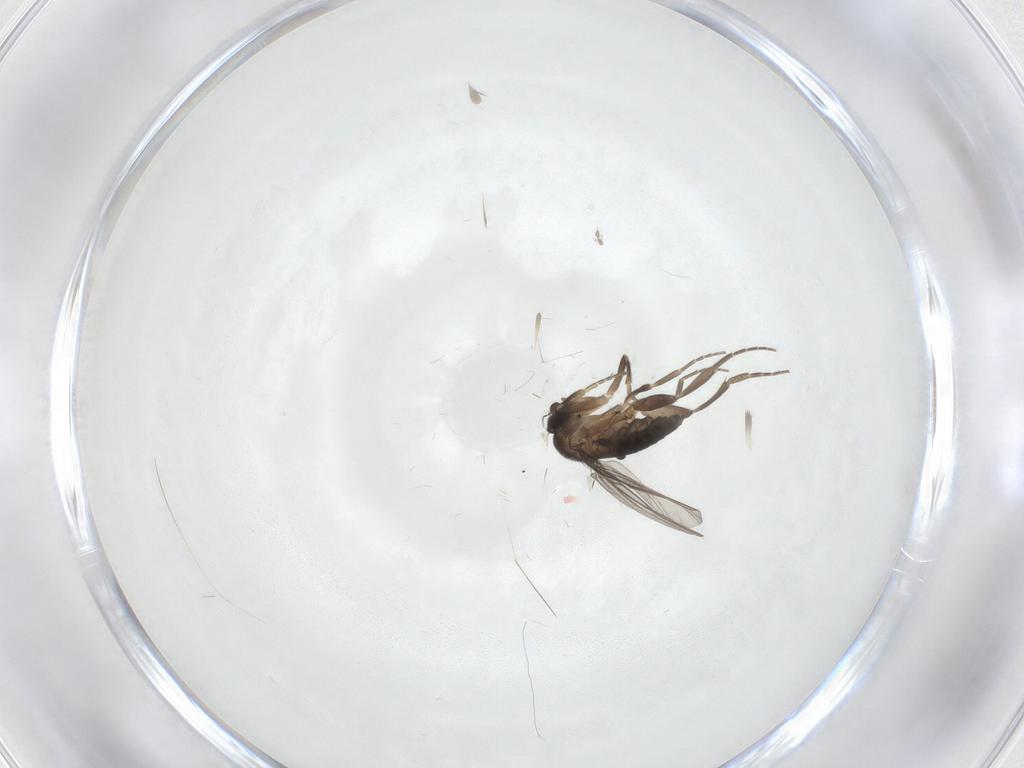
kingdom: Animalia
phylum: Arthropoda
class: Insecta
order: Diptera
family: Cecidomyiidae
